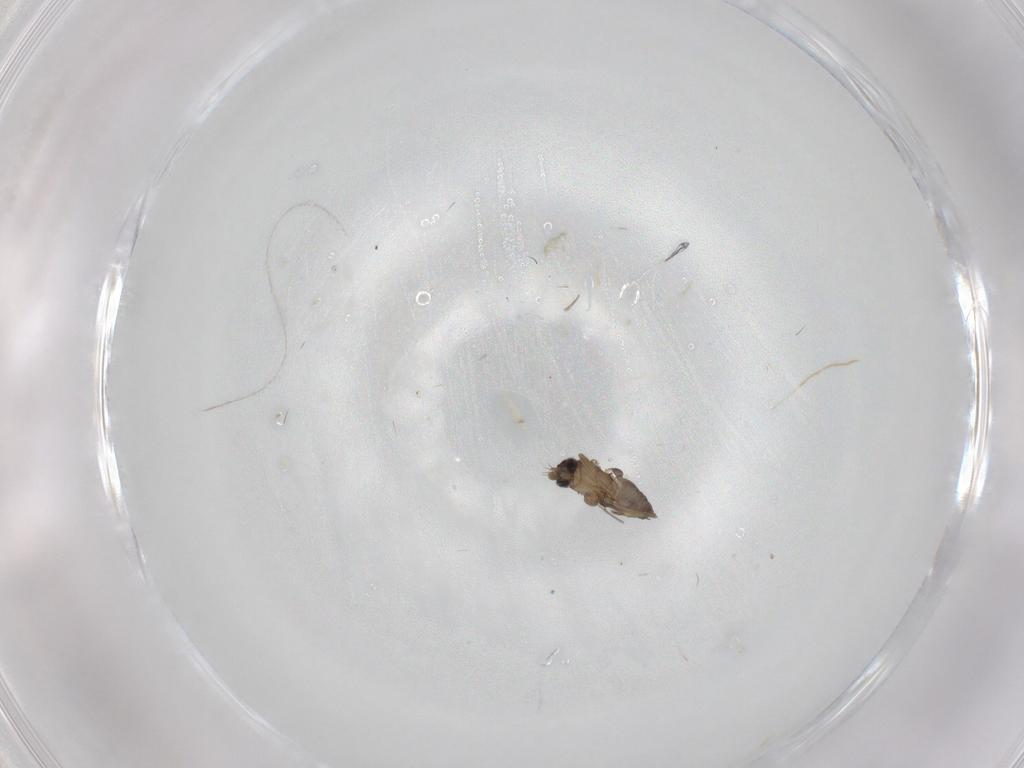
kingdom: Animalia
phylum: Arthropoda
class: Insecta
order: Diptera
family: Phoridae
